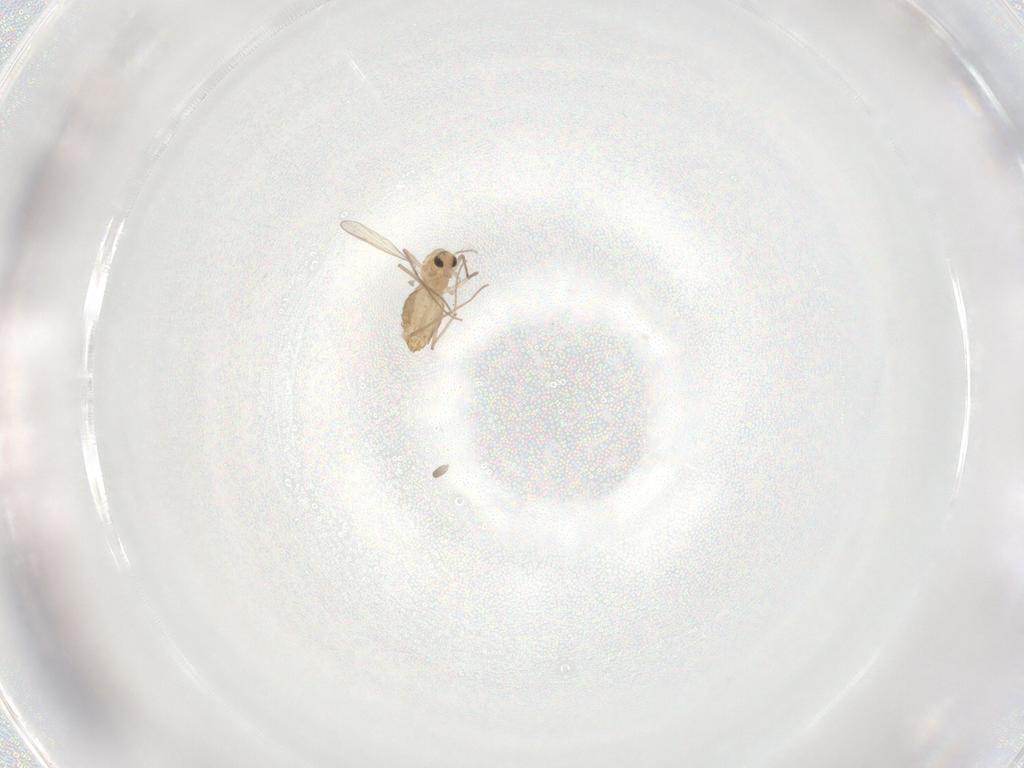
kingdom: Animalia
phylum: Arthropoda
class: Insecta
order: Diptera
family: Chironomidae
